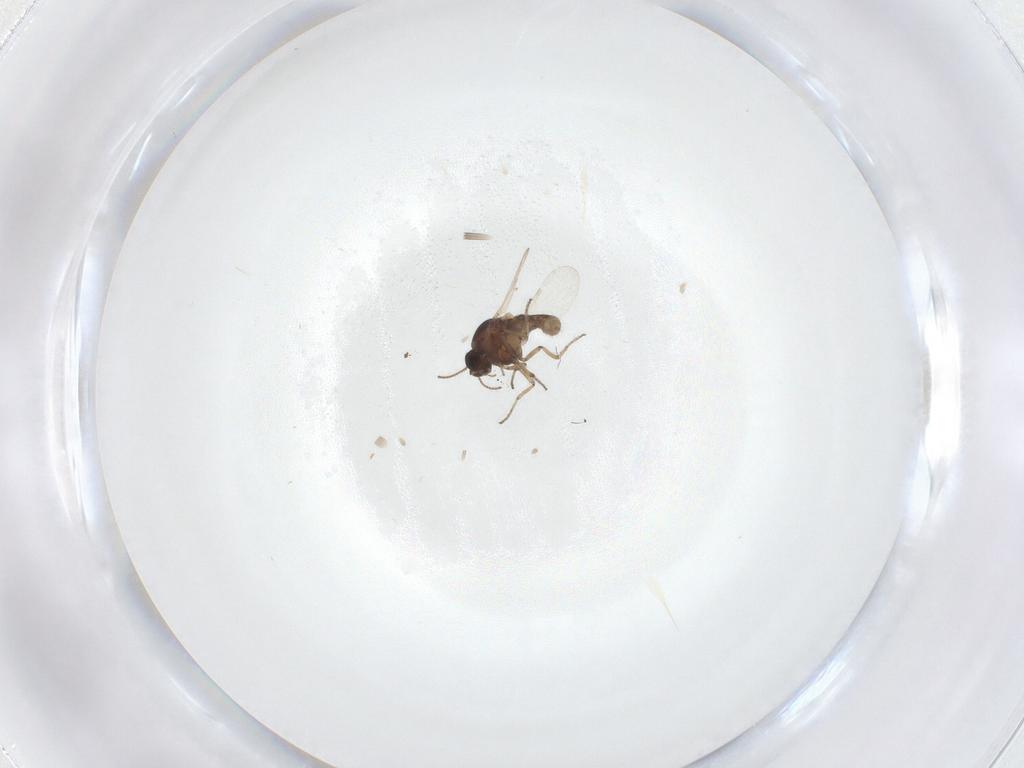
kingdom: Animalia
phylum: Arthropoda
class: Insecta
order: Diptera
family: Ceratopogonidae
